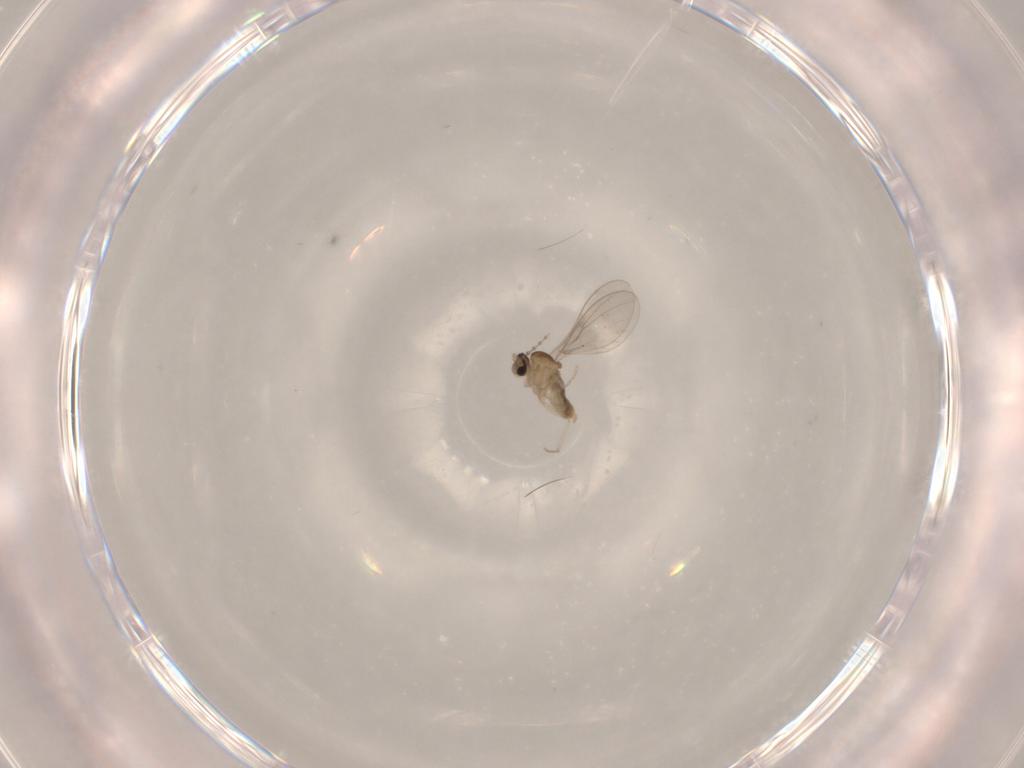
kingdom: Animalia
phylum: Arthropoda
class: Insecta
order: Diptera
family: Cecidomyiidae
